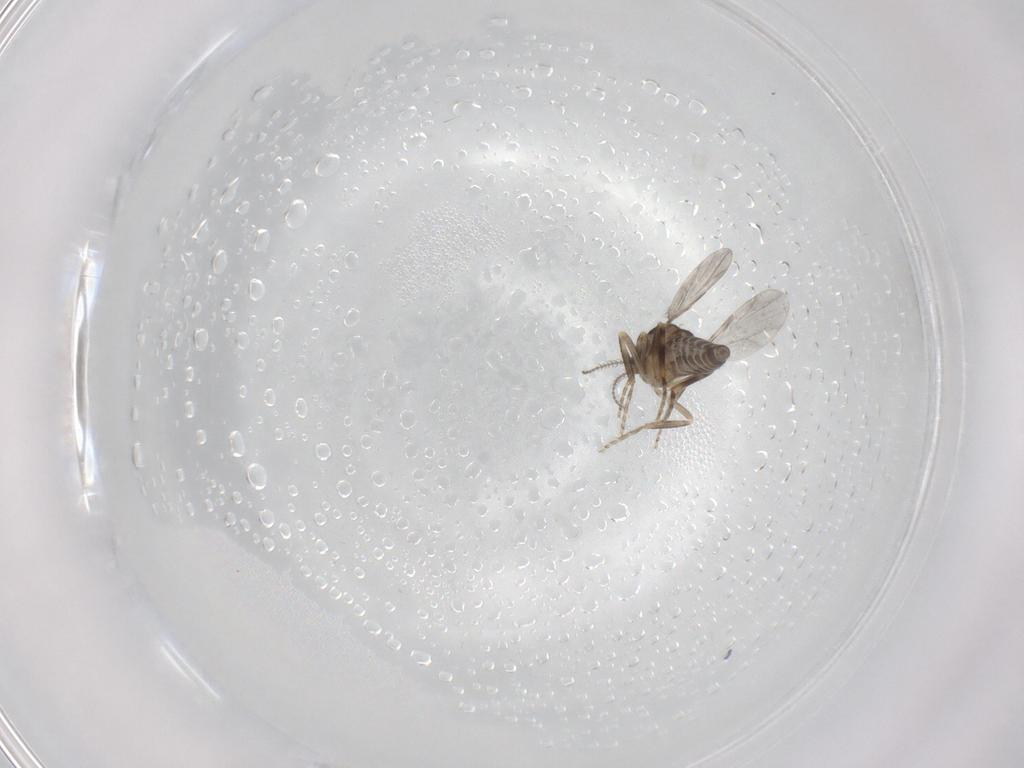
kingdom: Animalia
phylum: Arthropoda
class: Insecta
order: Diptera
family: Ceratopogonidae
